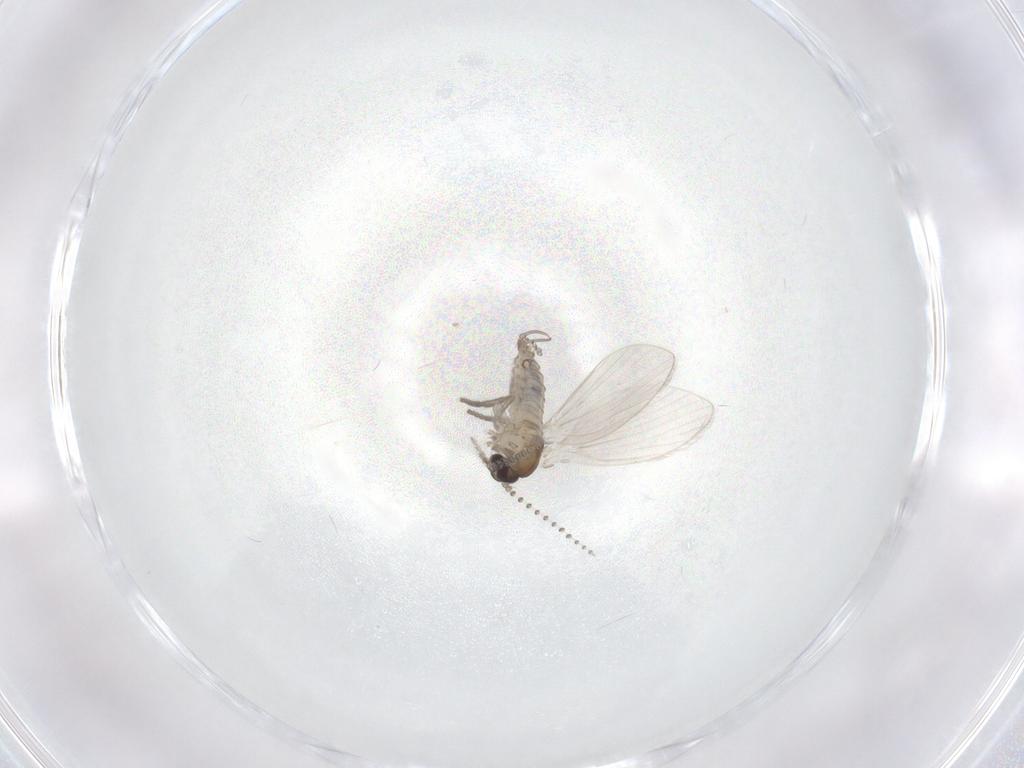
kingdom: Animalia
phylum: Arthropoda
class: Insecta
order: Diptera
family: Psychodidae
